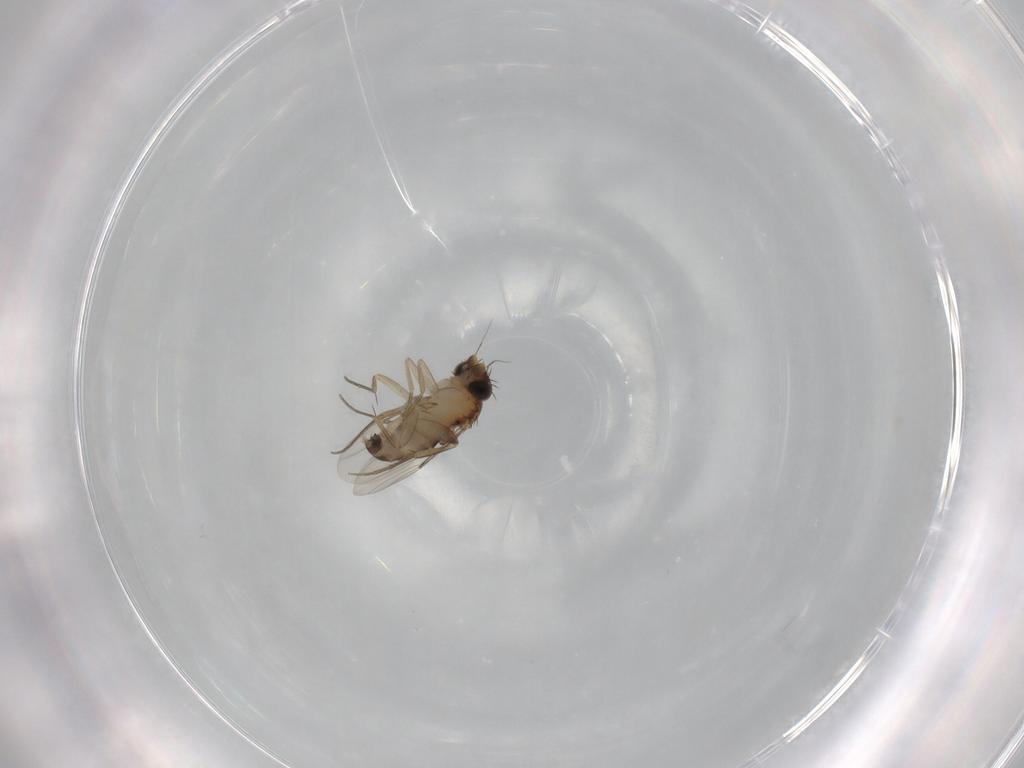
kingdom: Animalia
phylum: Arthropoda
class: Insecta
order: Diptera
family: Phoridae
